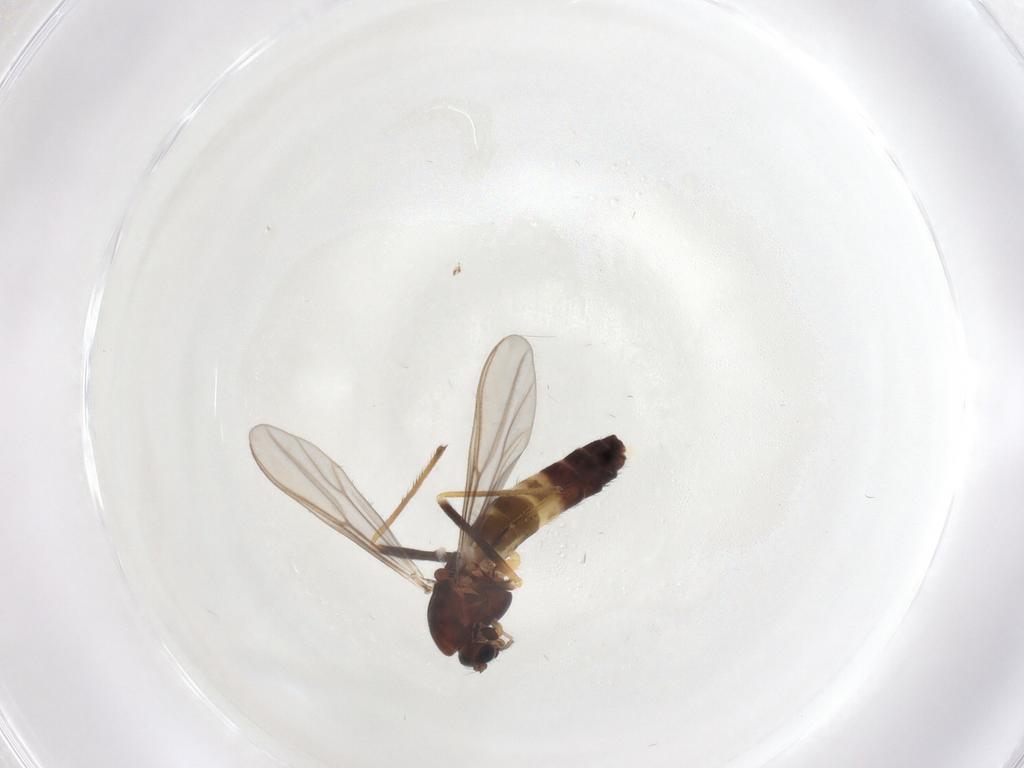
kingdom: Animalia
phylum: Arthropoda
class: Insecta
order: Diptera
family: Chironomidae
